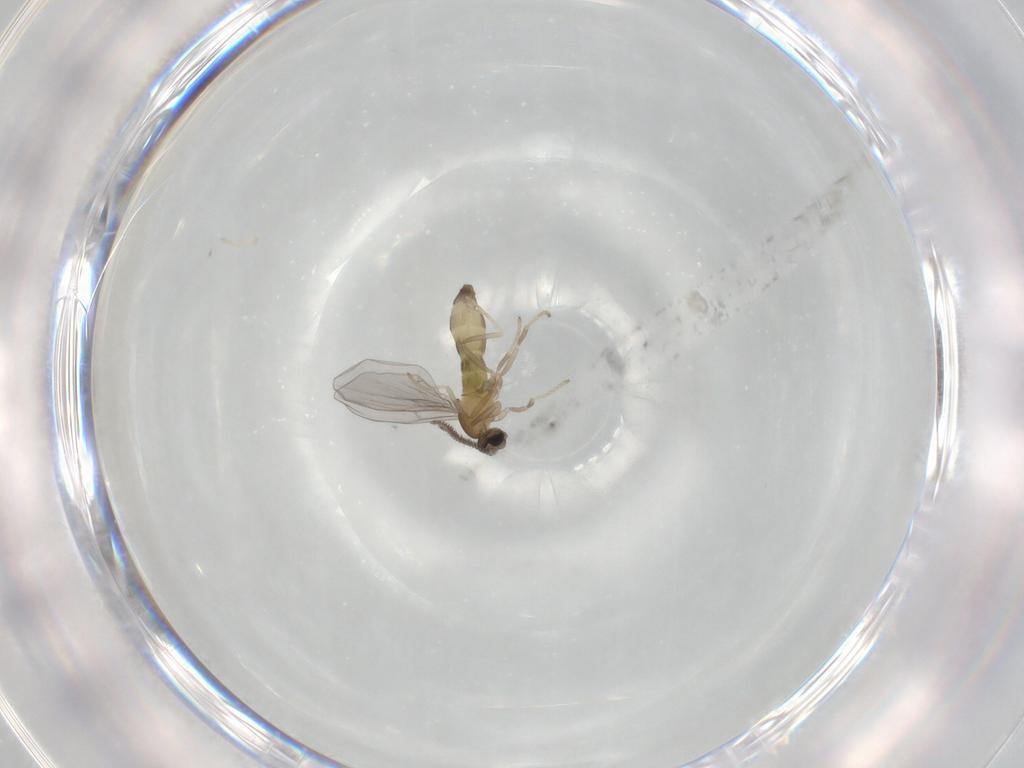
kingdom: Animalia
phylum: Arthropoda
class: Insecta
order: Diptera
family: Cecidomyiidae
